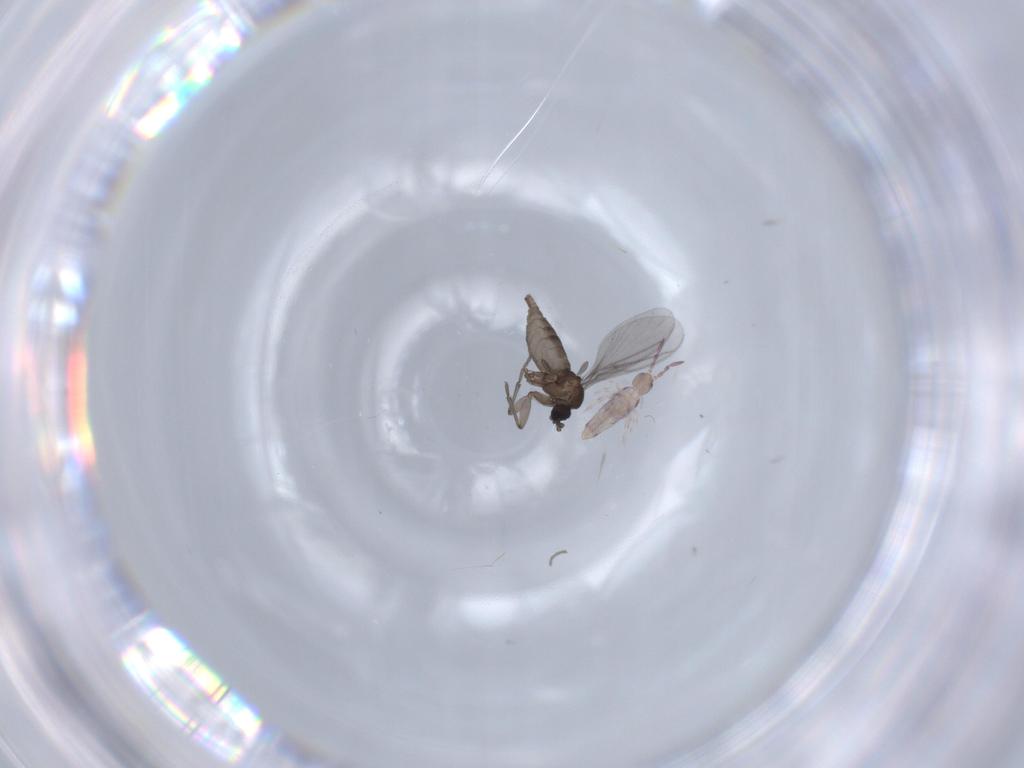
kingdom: Animalia
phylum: Arthropoda
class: Collembola
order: Entomobryomorpha
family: Entomobryidae
